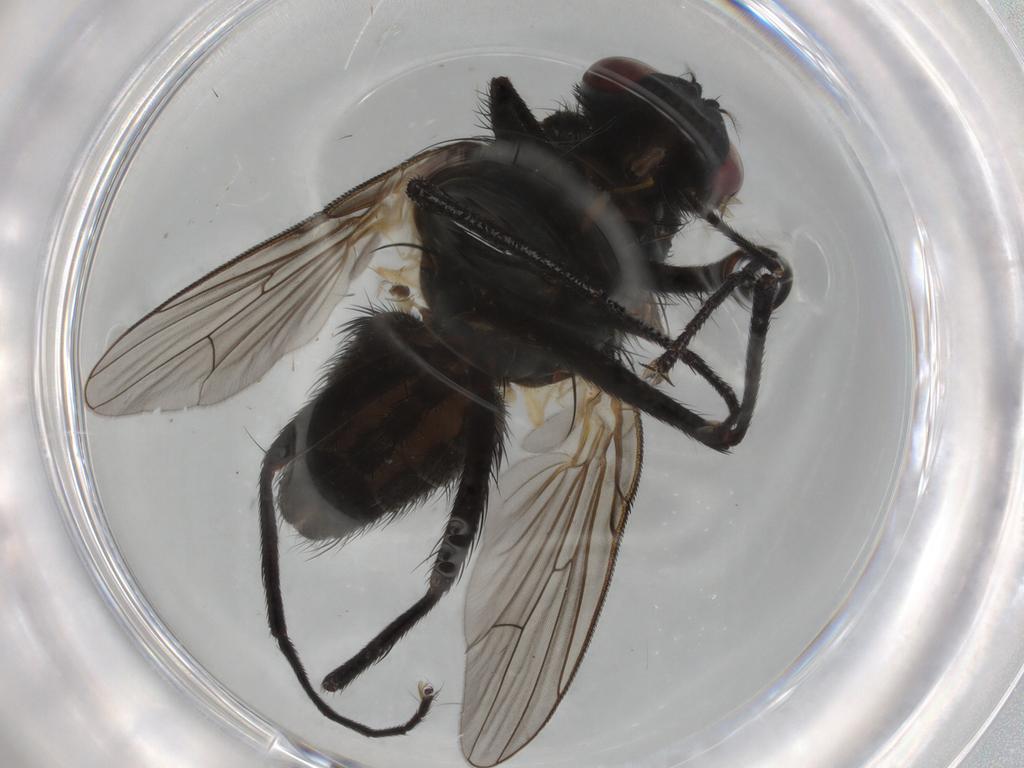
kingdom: Animalia
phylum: Arthropoda
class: Insecta
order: Diptera
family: Muscidae
